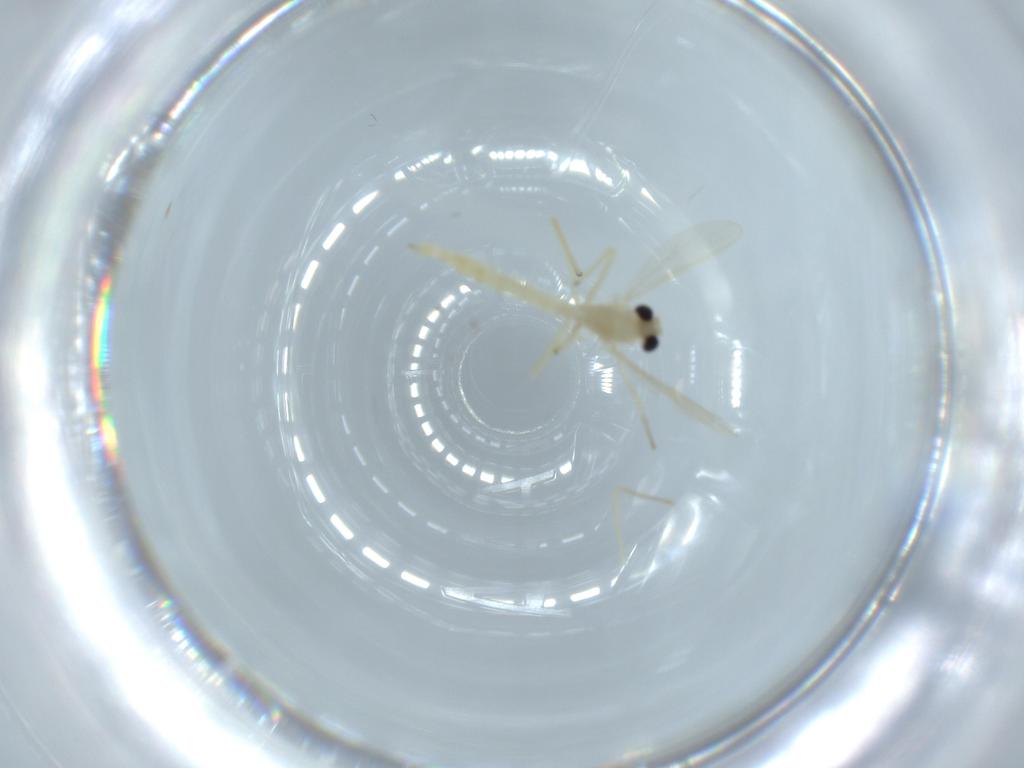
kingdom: Animalia
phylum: Arthropoda
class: Insecta
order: Diptera
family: Chironomidae
